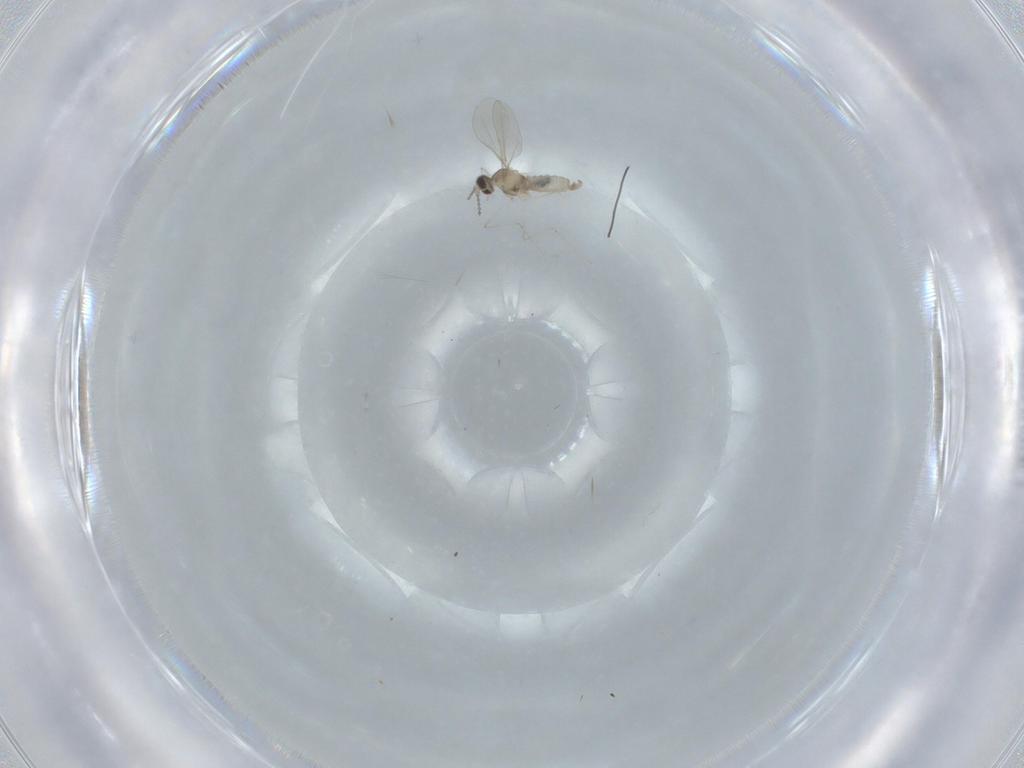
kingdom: Animalia
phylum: Arthropoda
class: Insecta
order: Diptera
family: Cecidomyiidae
